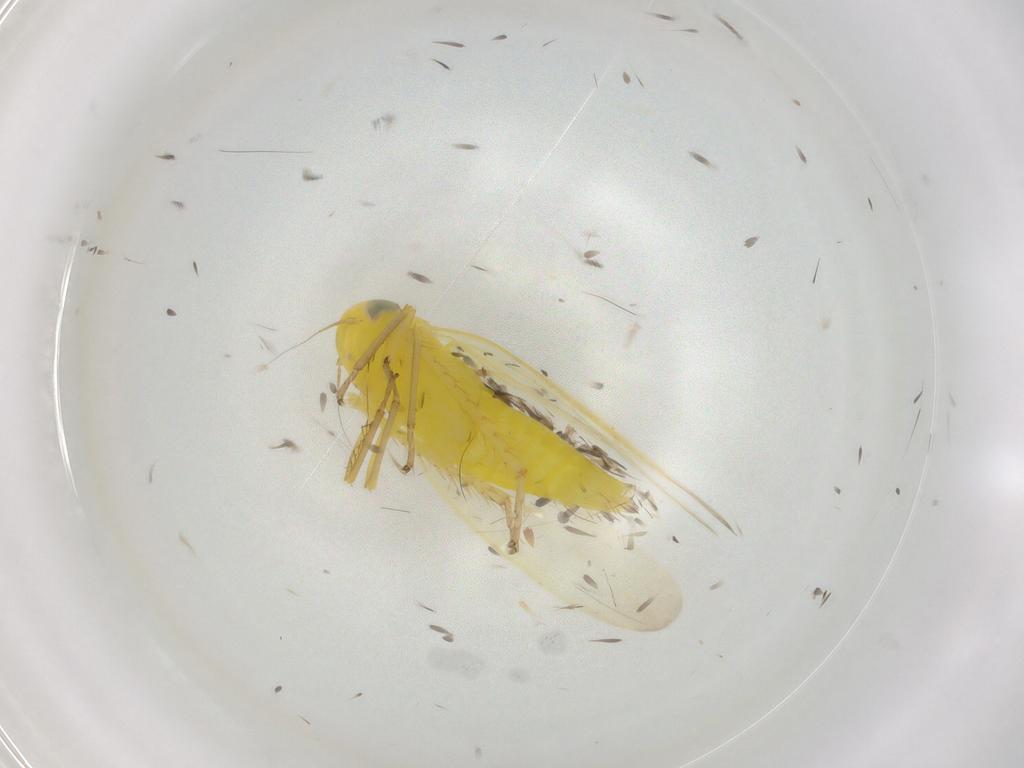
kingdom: Animalia
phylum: Arthropoda
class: Insecta
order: Hemiptera
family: Cicadellidae
